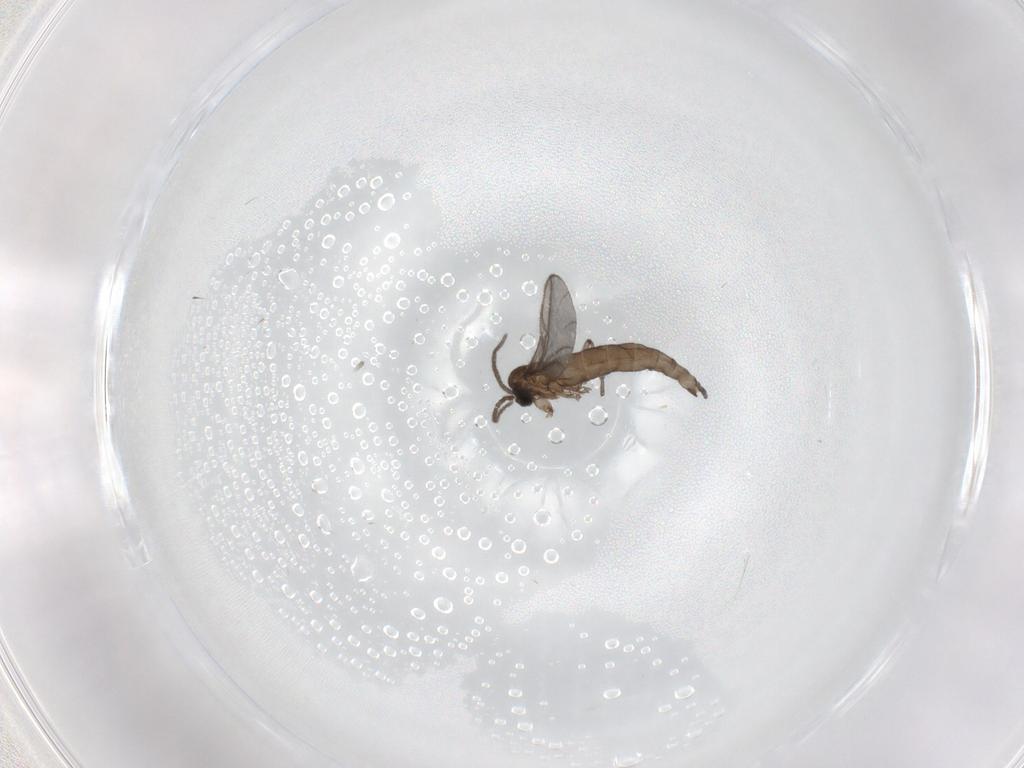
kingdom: Animalia
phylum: Arthropoda
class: Insecta
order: Diptera
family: Sciaridae
